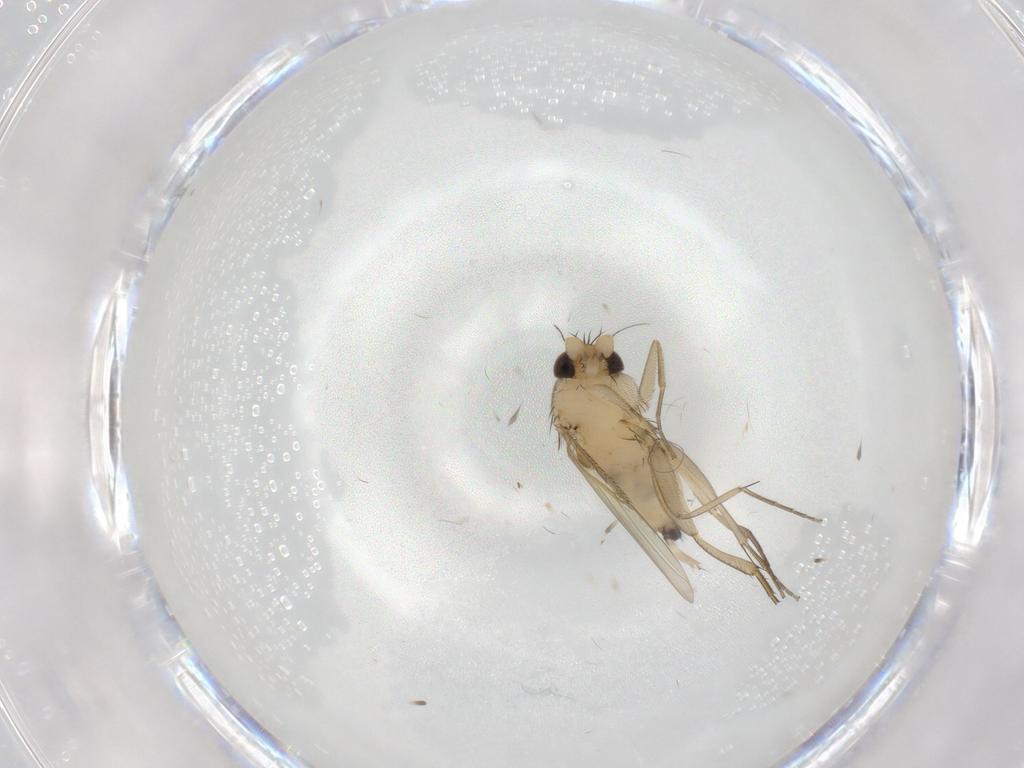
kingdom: Animalia
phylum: Arthropoda
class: Insecta
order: Diptera
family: Phoridae
